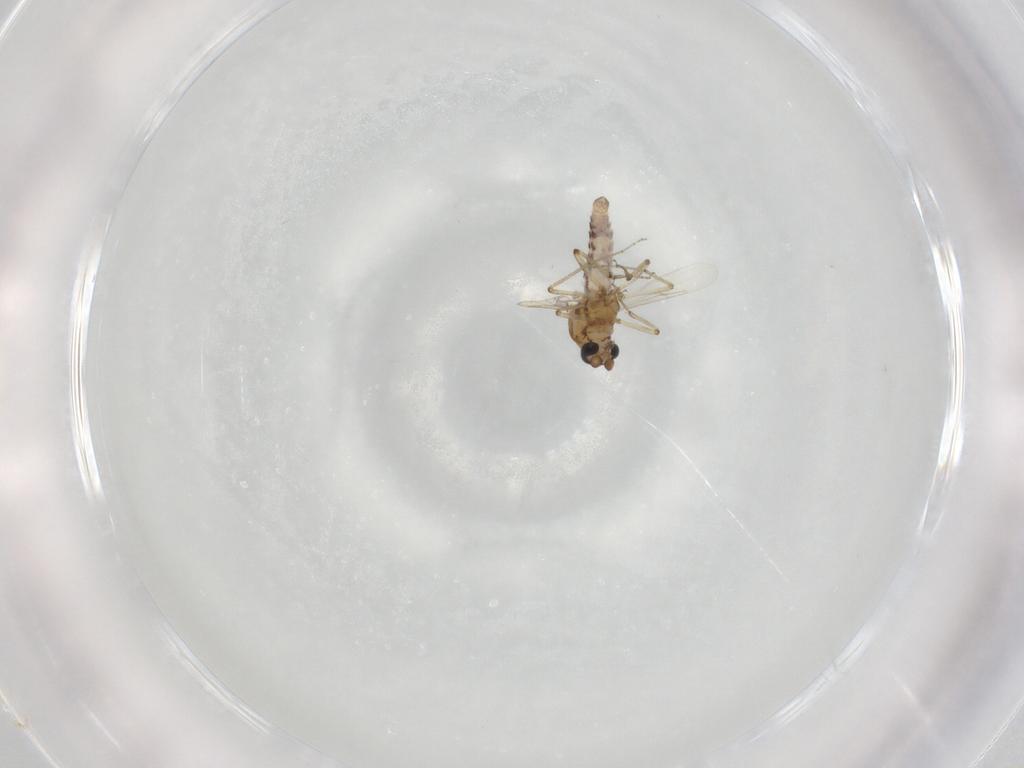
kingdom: Animalia
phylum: Arthropoda
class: Insecta
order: Diptera
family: Ceratopogonidae
